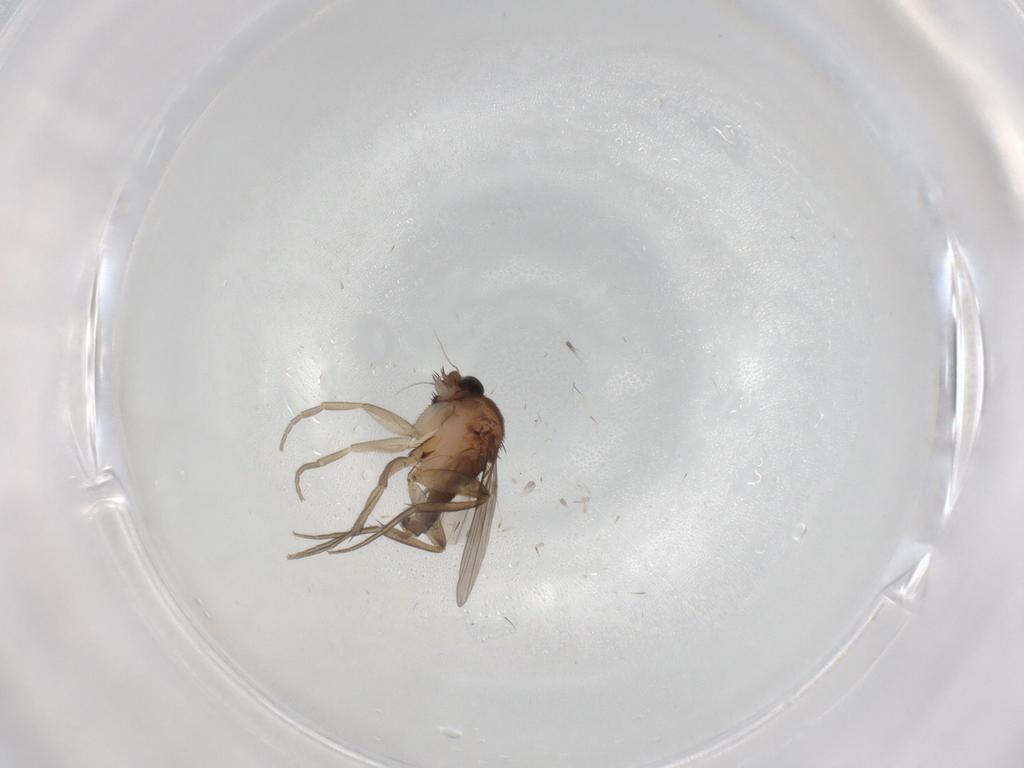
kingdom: Animalia
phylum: Arthropoda
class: Insecta
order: Diptera
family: Phoridae
